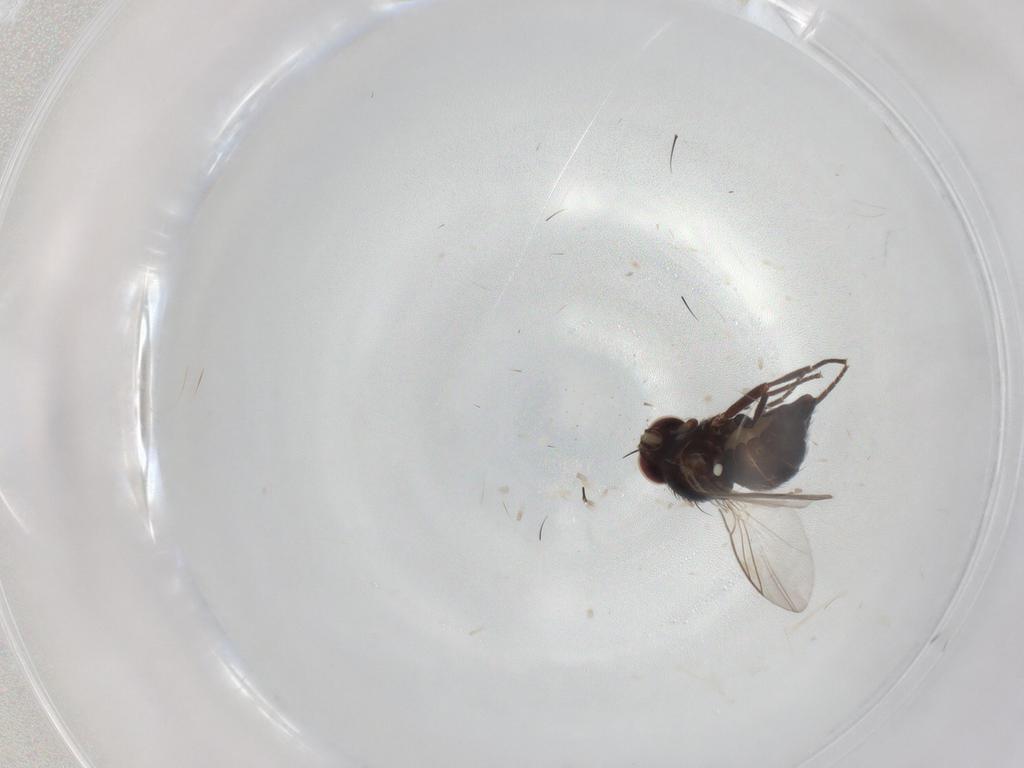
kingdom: Animalia
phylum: Arthropoda
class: Insecta
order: Diptera
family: Agromyzidae
